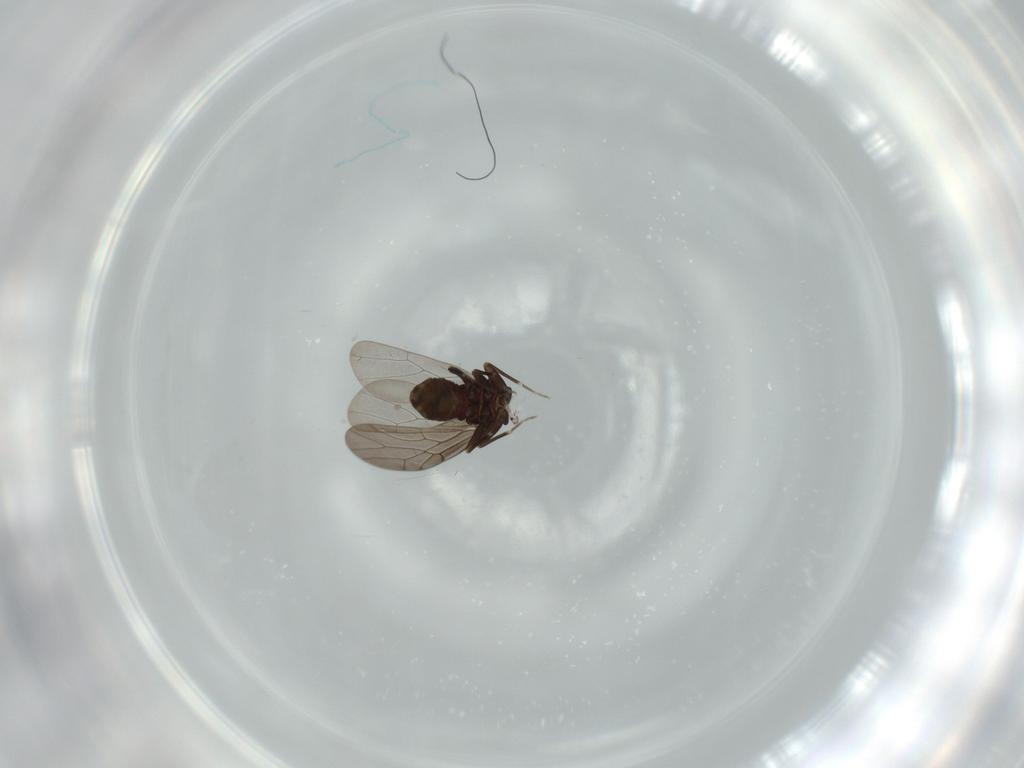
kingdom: Animalia
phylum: Arthropoda
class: Insecta
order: Psocodea
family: Lepidopsocidae
